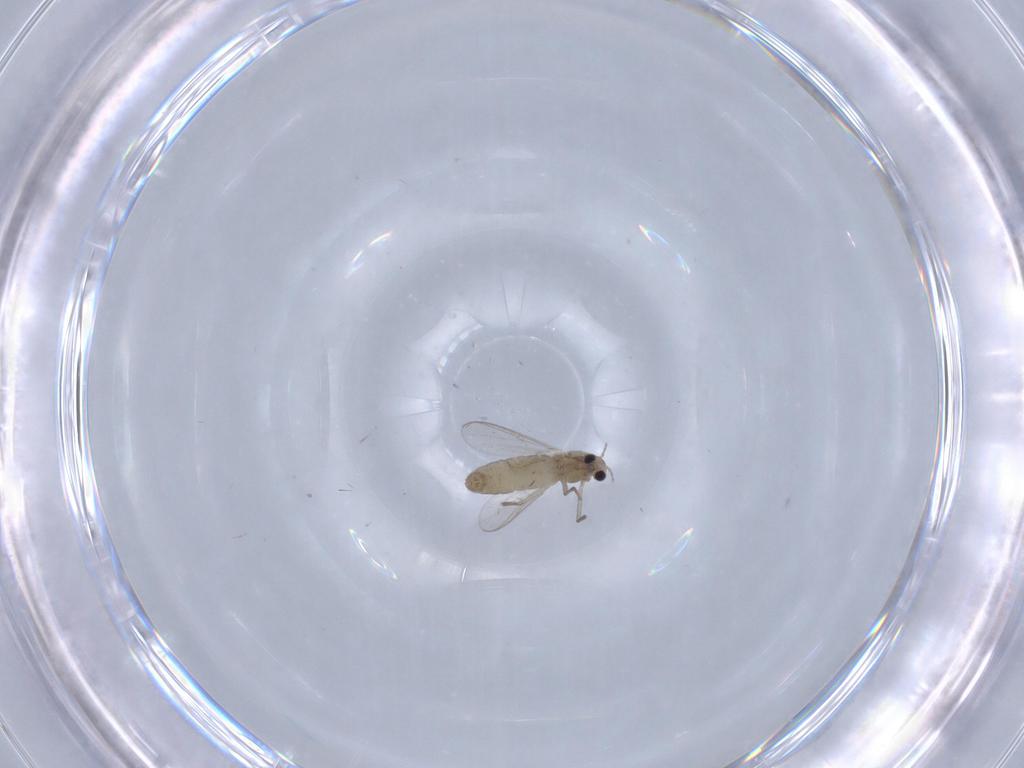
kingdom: Animalia
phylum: Arthropoda
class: Insecta
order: Diptera
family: Chironomidae
